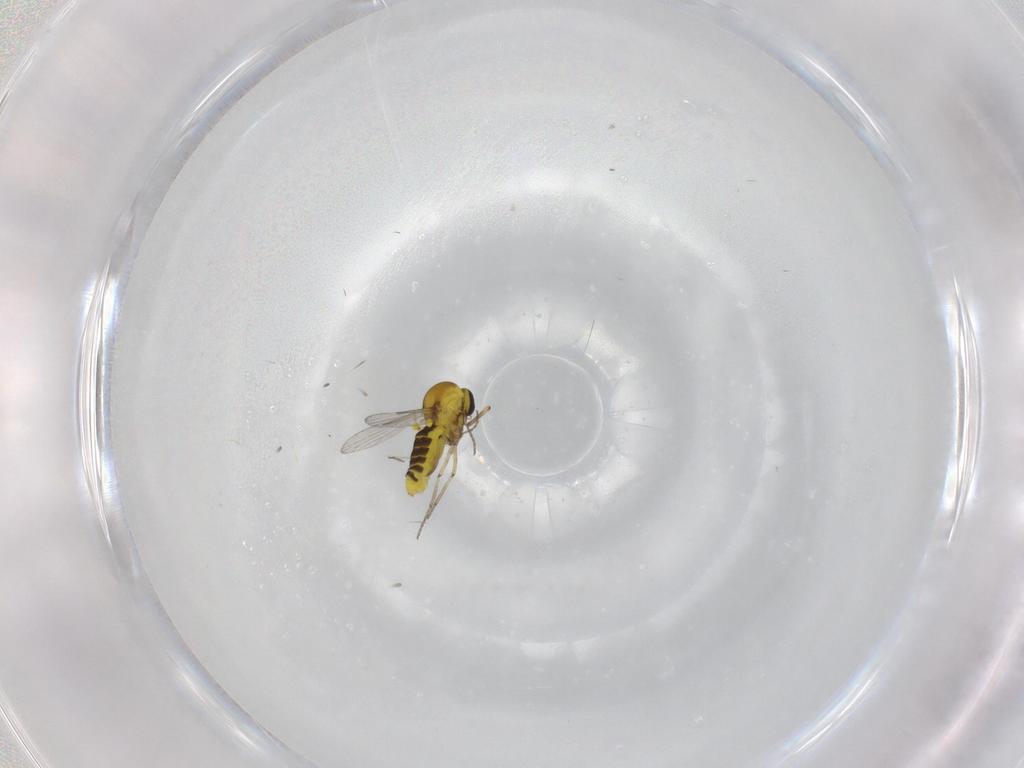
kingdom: Animalia
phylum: Arthropoda
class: Insecta
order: Diptera
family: Ceratopogonidae
